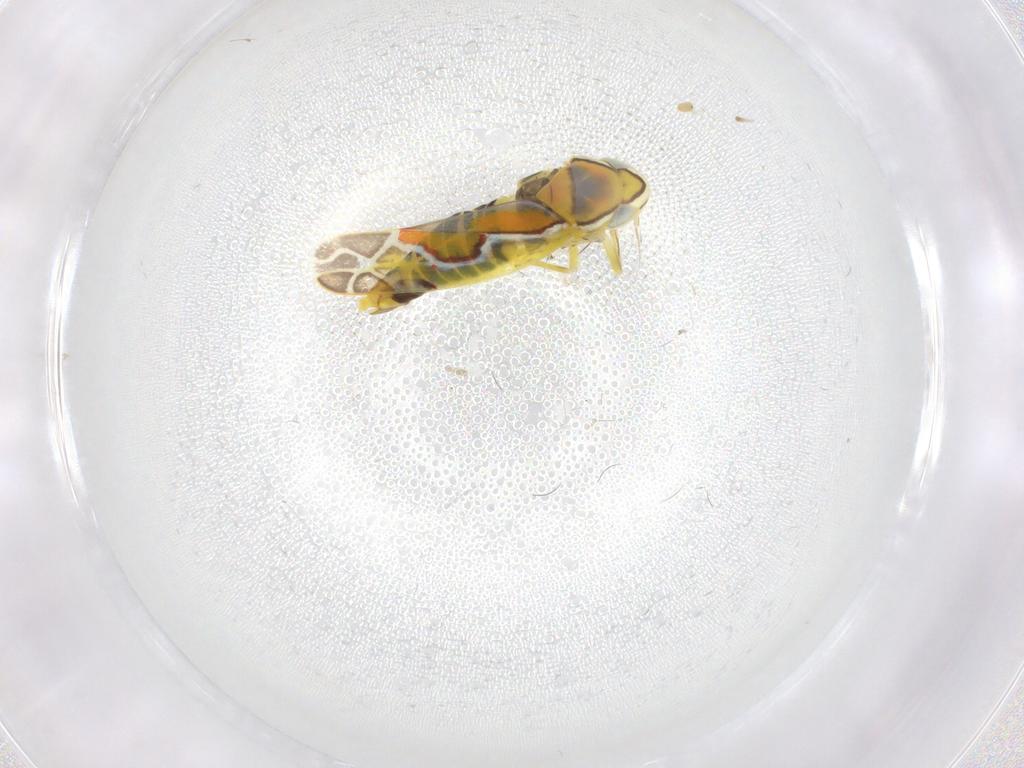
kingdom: Animalia
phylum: Arthropoda
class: Insecta
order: Hemiptera
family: Cicadellidae
